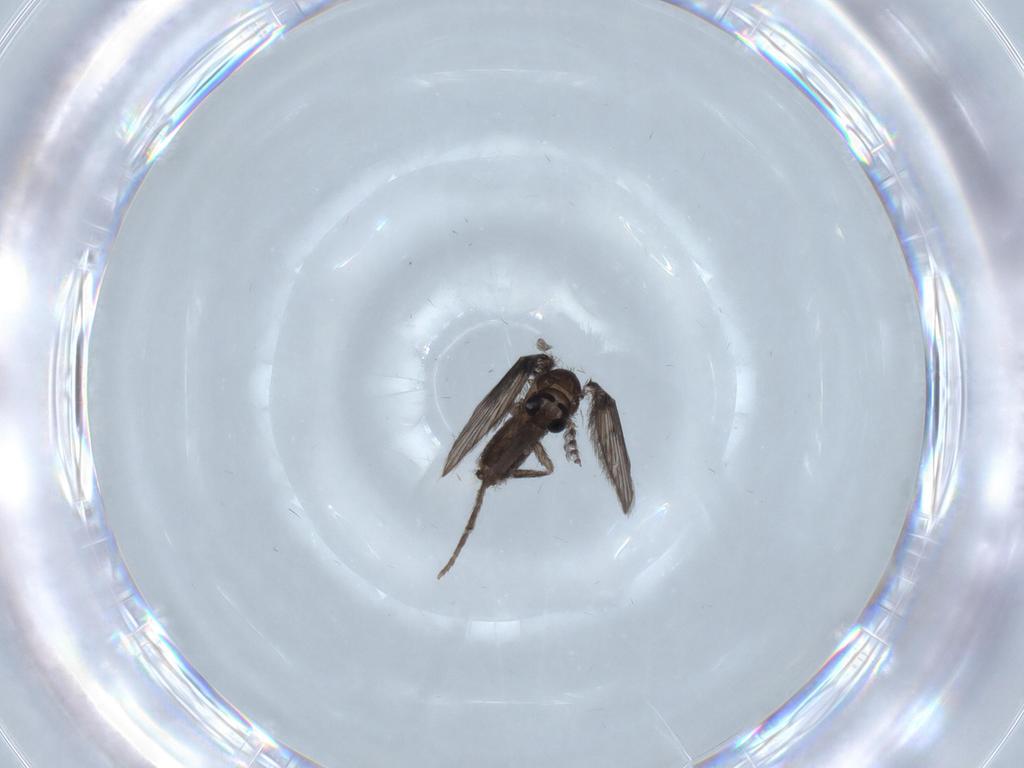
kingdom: Animalia
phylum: Arthropoda
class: Insecta
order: Diptera
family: Psychodidae
